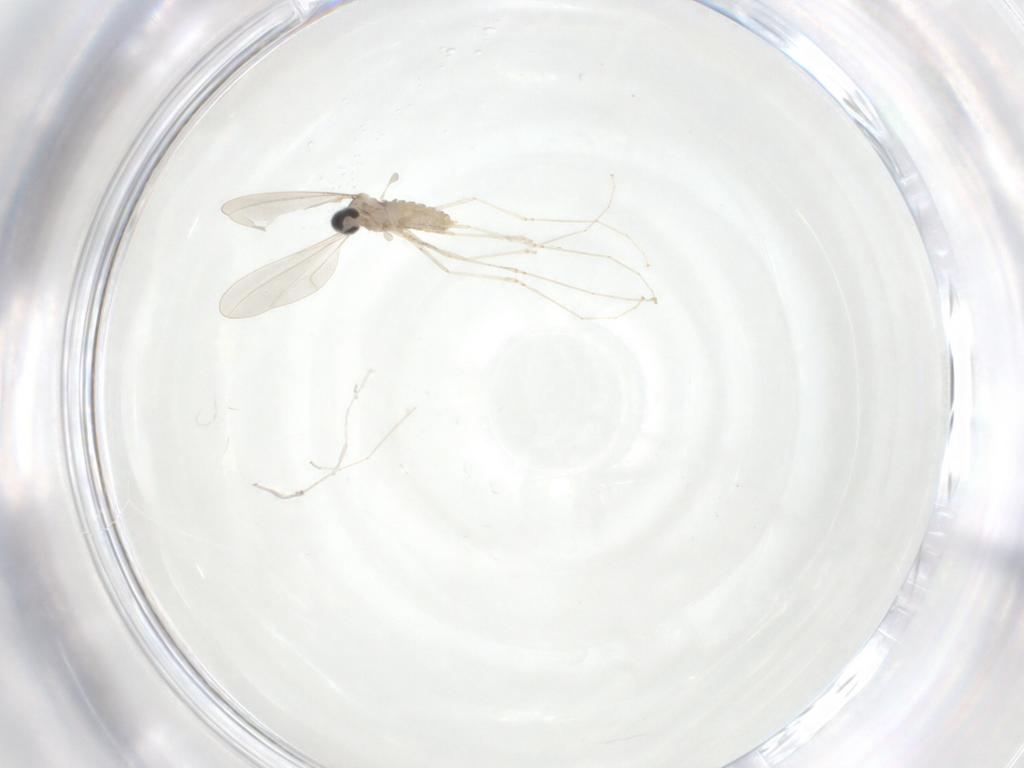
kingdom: Animalia
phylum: Arthropoda
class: Insecta
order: Diptera
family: Cecidomyiidae
